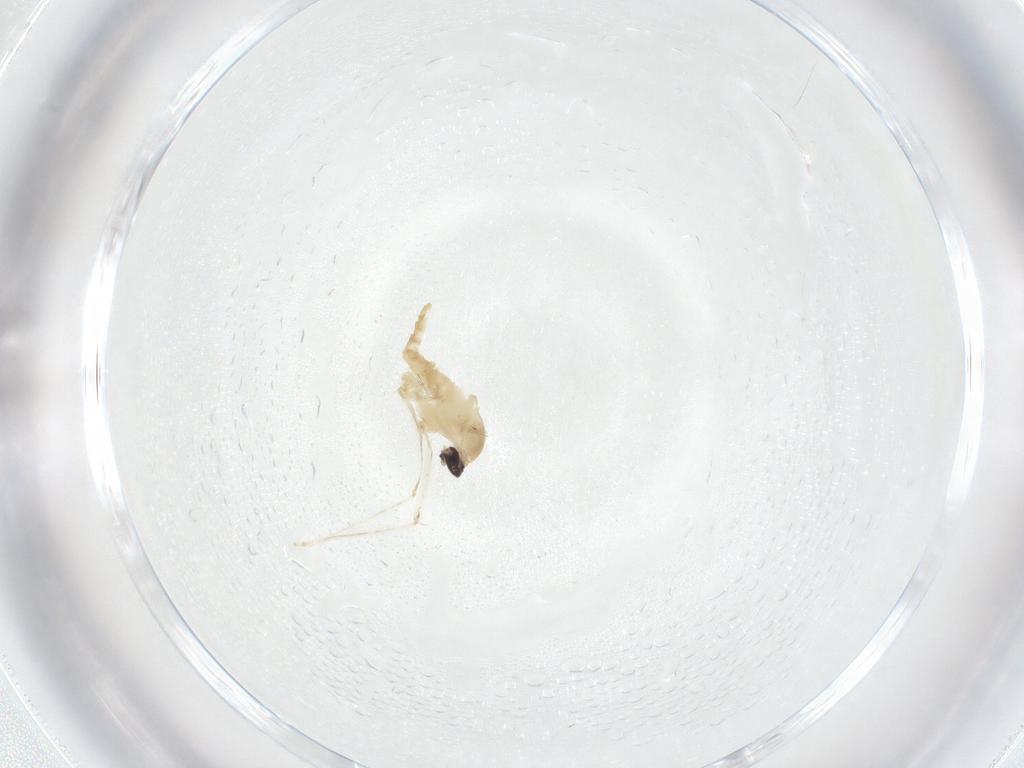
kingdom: Animalia
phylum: Arthropoda
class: Insecta
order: Diptera
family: Cecidomyiidae
